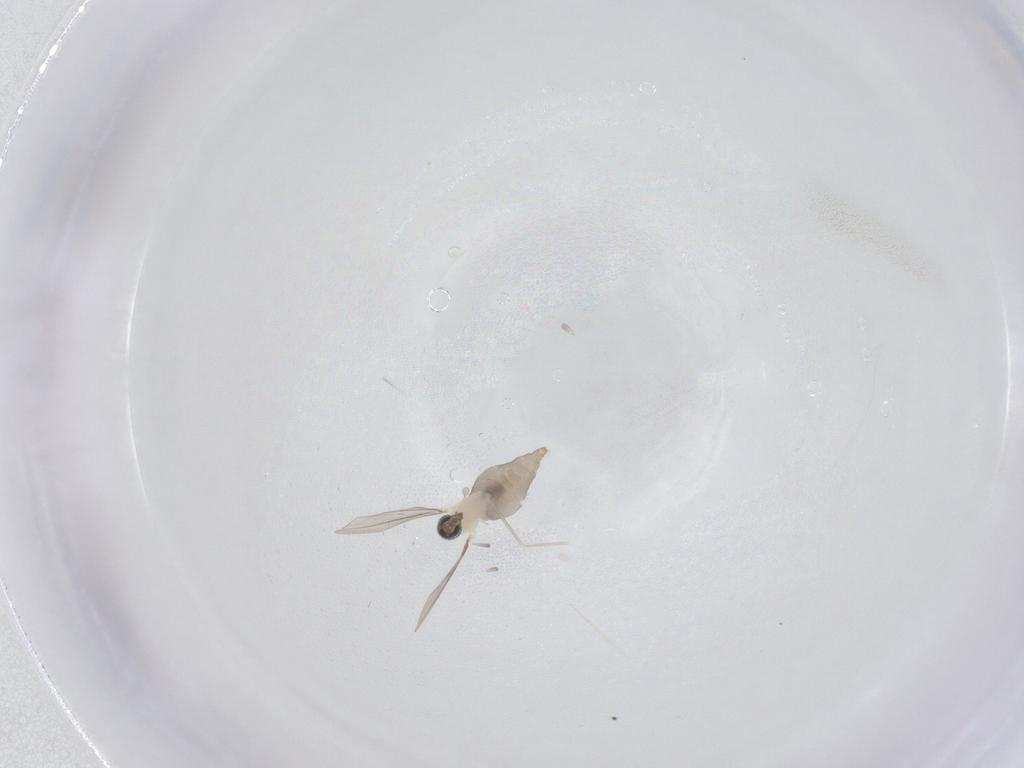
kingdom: Animalia
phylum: Arthropoda
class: Insecta
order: Diptera
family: Cecidomyiidae
